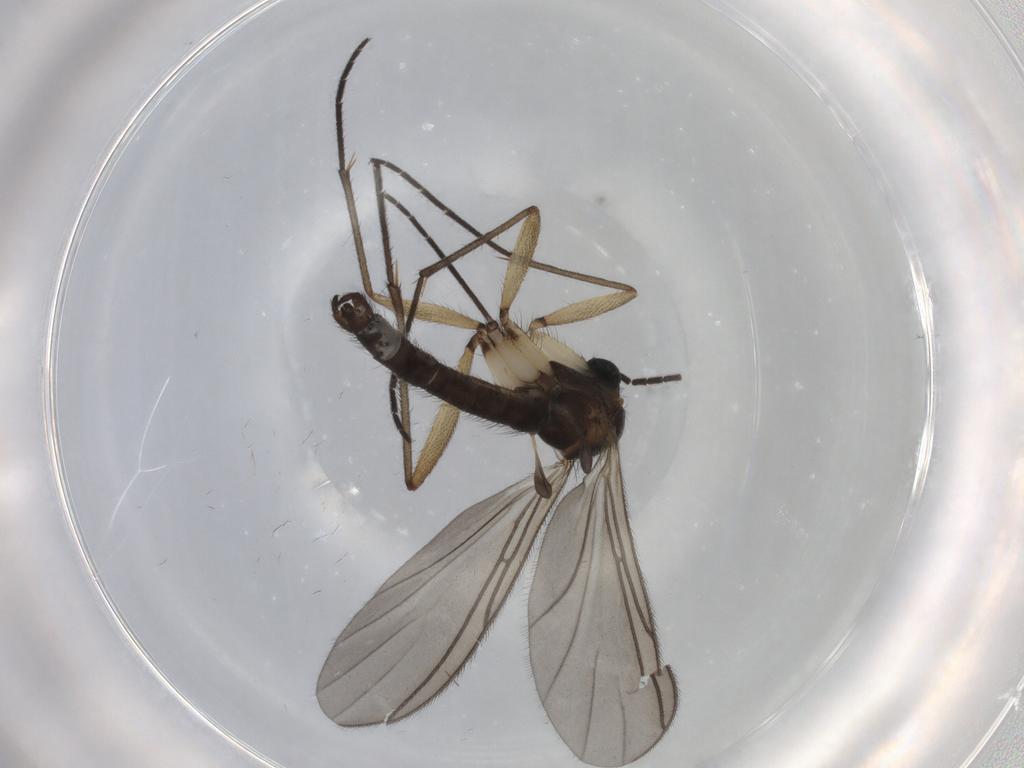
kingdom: Animalia
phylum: Arthropoda
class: Insecta
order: Diptera
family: Sciaridae
